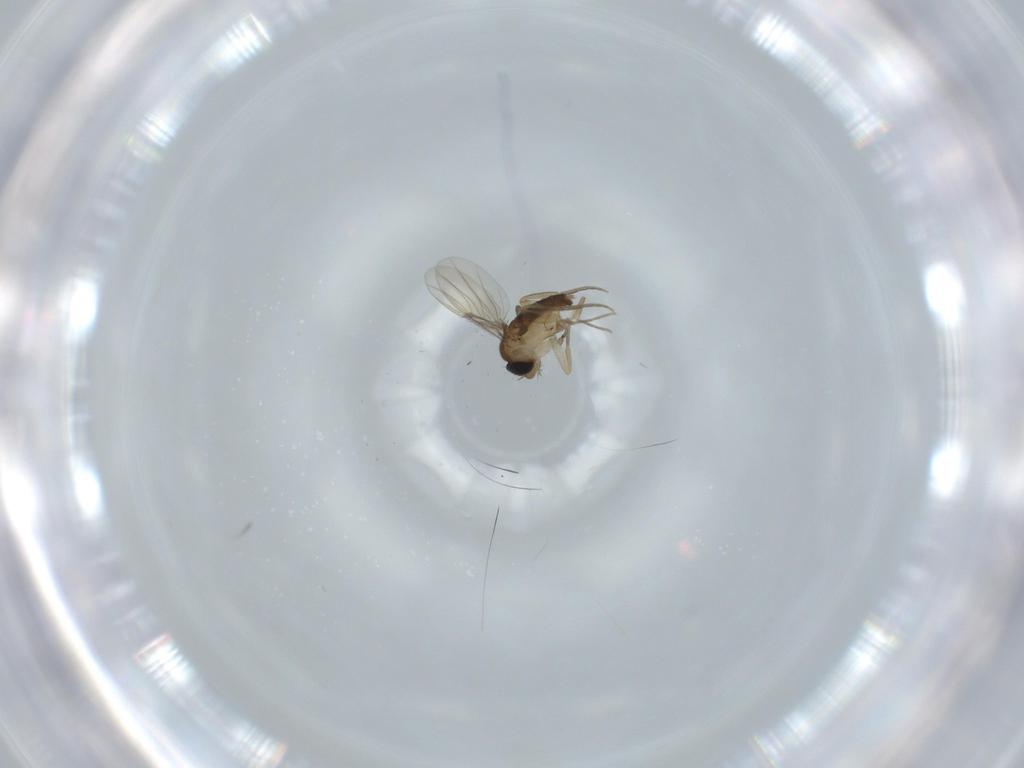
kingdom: Animalia
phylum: Arthropoda
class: Insecta
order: Diptera
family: Phoridae
